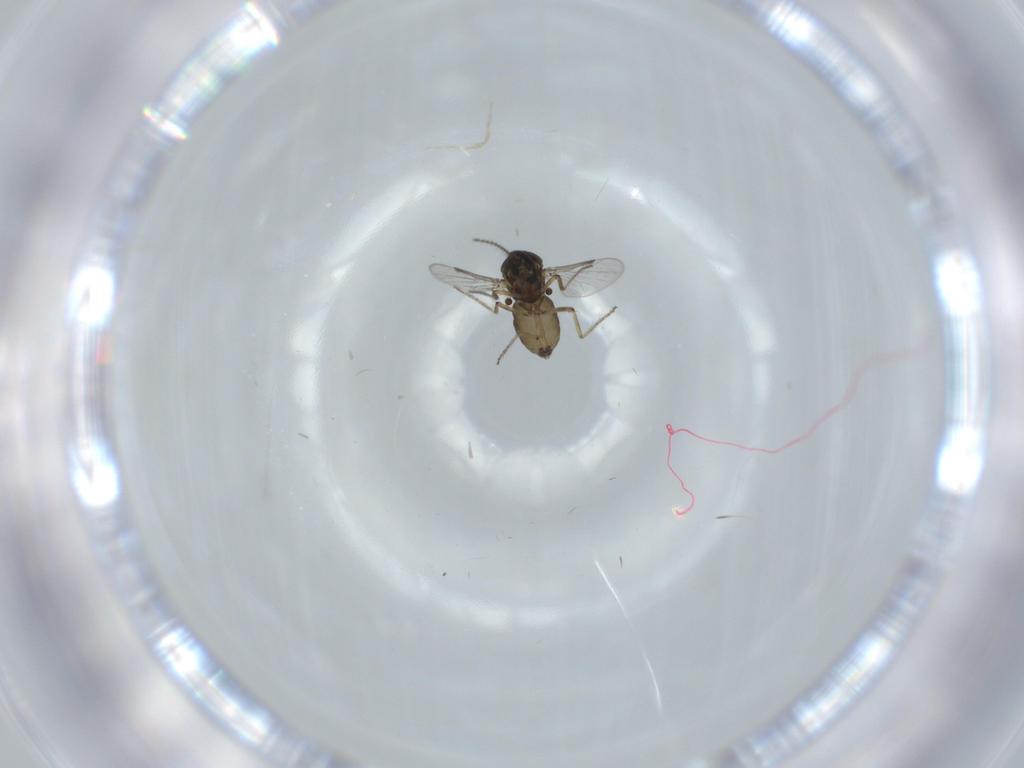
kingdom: Animalia
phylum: Arthropoda
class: Insecta
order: Diptera
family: Ceratopogonidae
